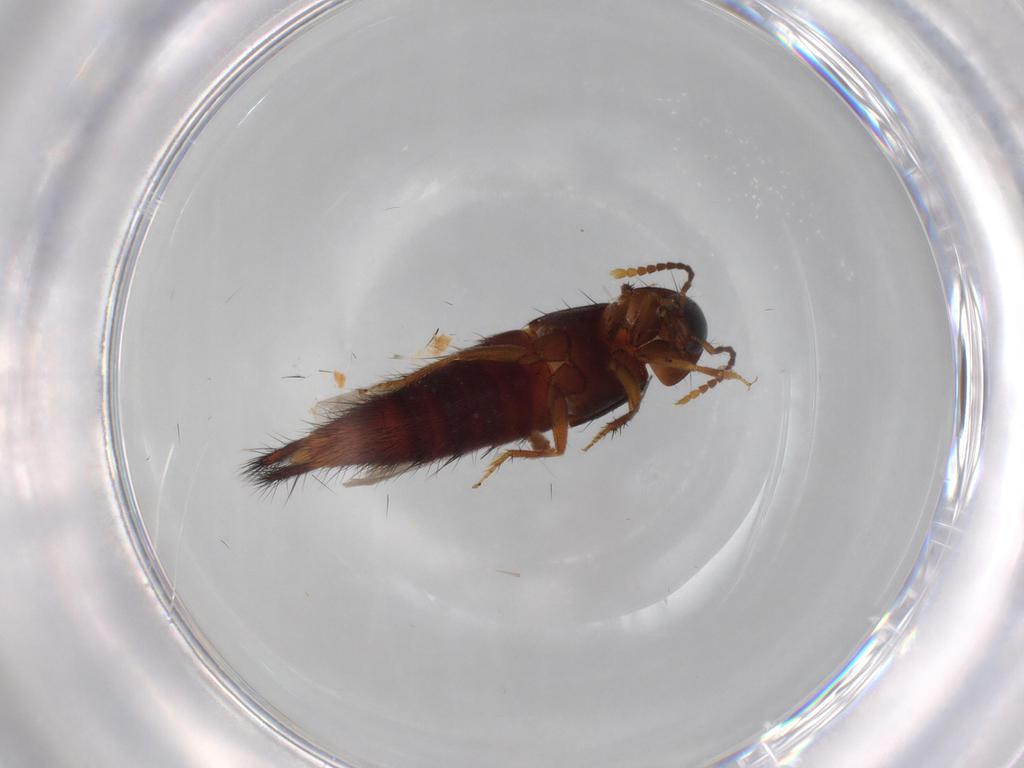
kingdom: Animalia
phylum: Arthropoda
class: Insecta
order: Coleoptera
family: Staphylinidae
